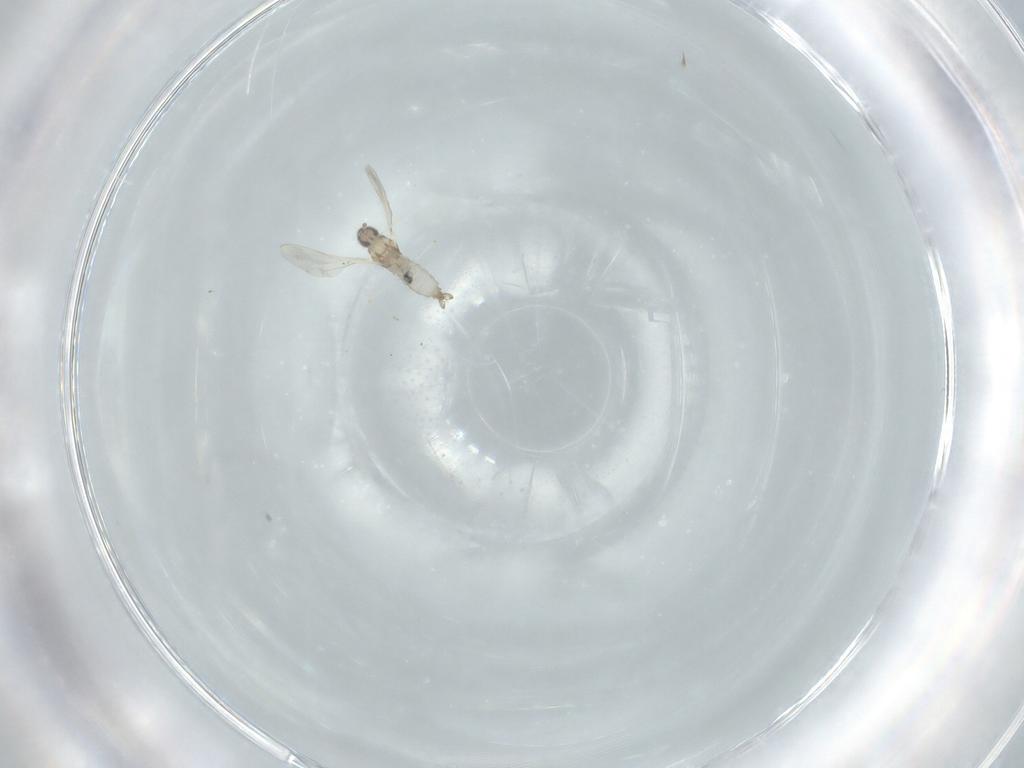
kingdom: Animalia
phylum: Arthropoda
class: Insecta
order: Diptera
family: Cecidomyiidae
